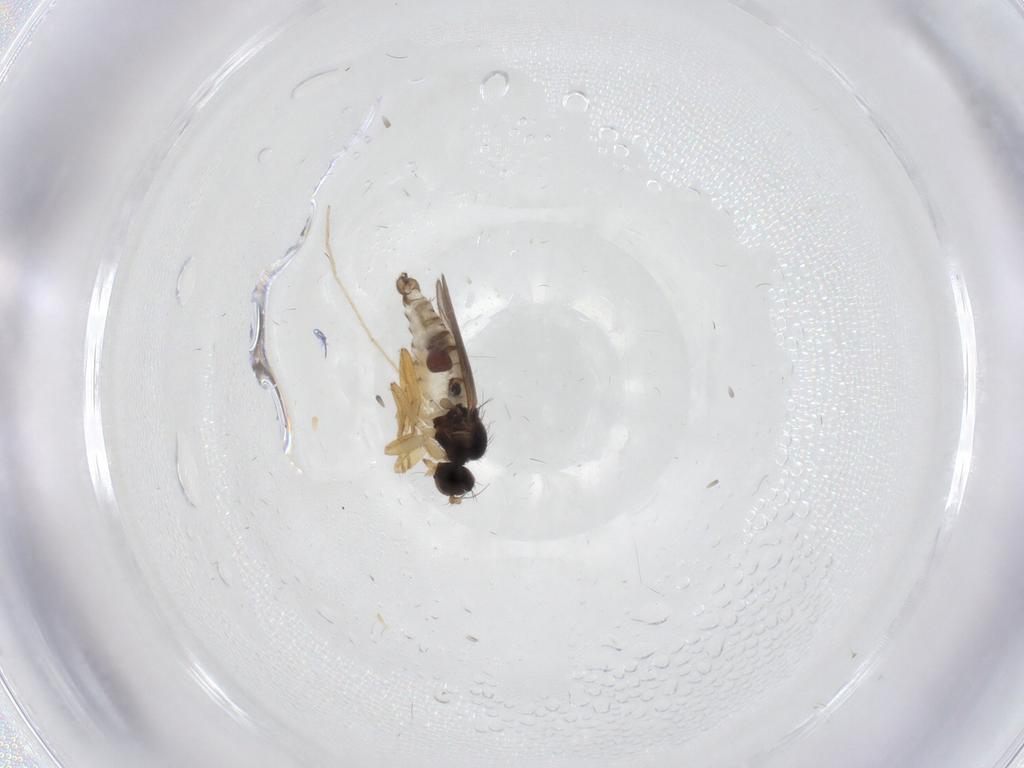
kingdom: Animalia
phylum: Arthropoda
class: Insecta
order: Diptera
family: Hybotidae
